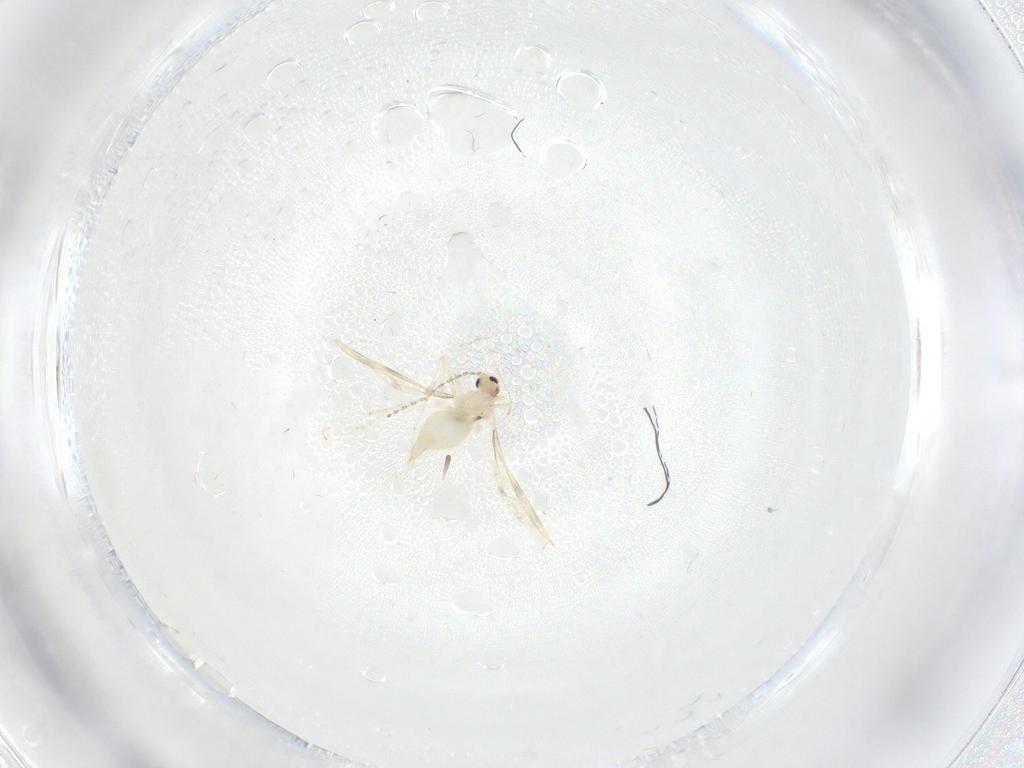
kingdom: Animalia
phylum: Arthropoda
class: Insecta
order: Diptera
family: Cecidomyiidae
